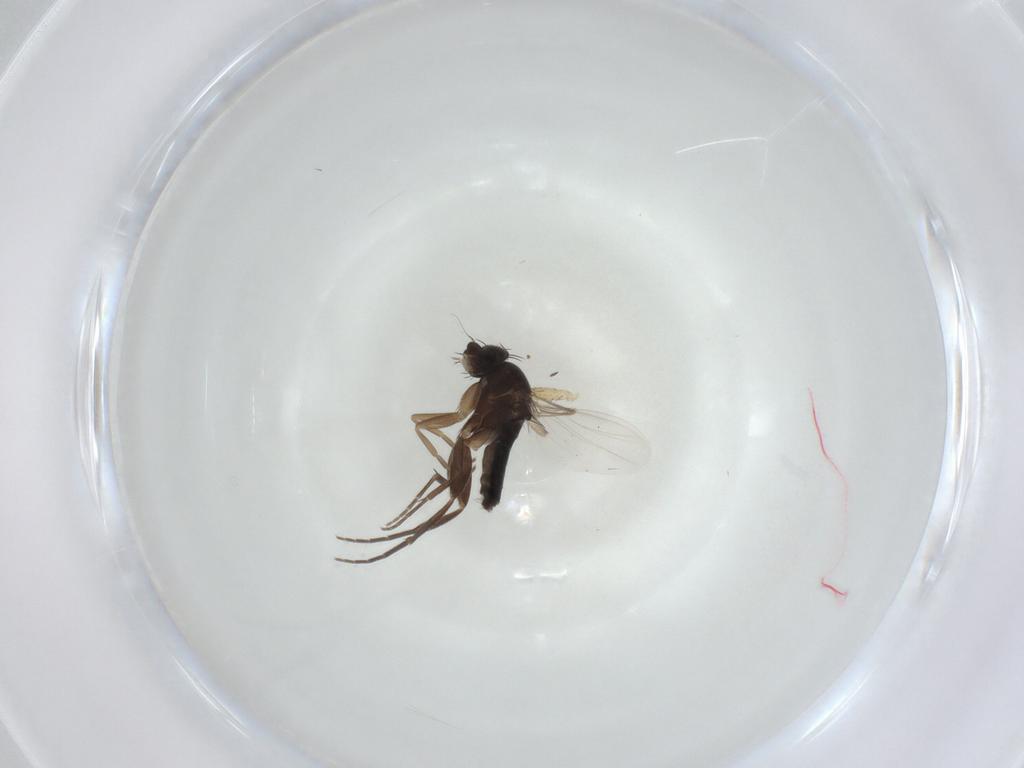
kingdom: Animalia
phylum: Arthropoda
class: Insecta
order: Diptera
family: Phoridae
